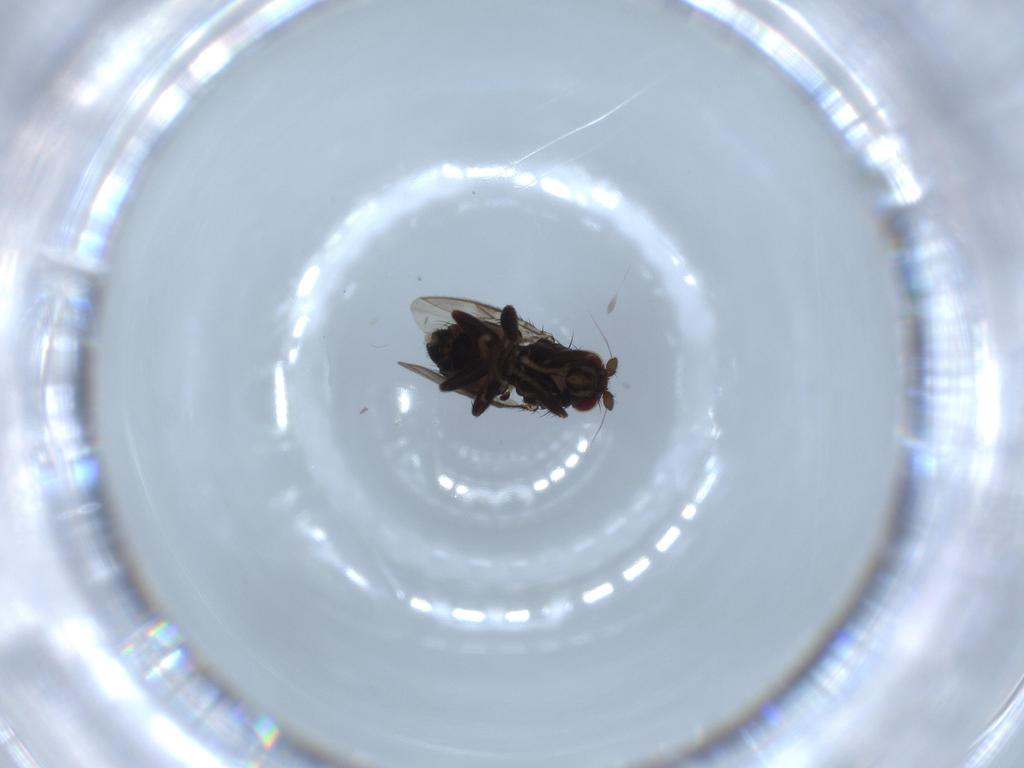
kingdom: Animalia
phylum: Arthropoda
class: Insecta
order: Diptera
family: Sphaeroceridae
